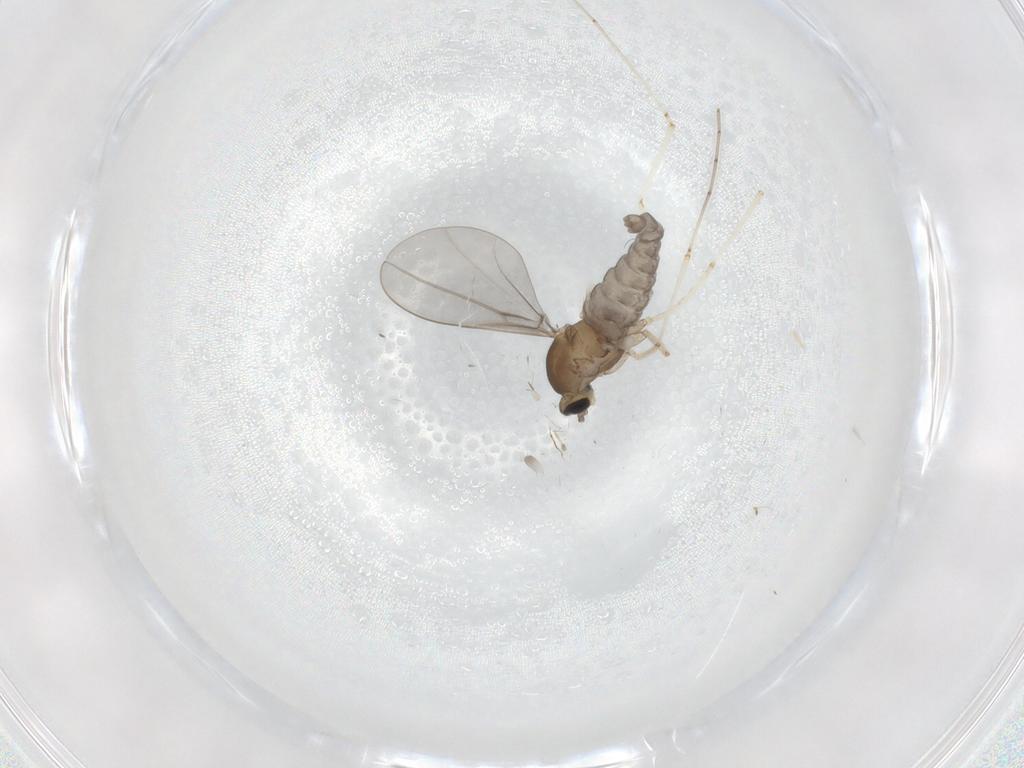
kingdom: Animalia
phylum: Arthropoda
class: Insecta
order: Diptera
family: Cecidomyiidae
